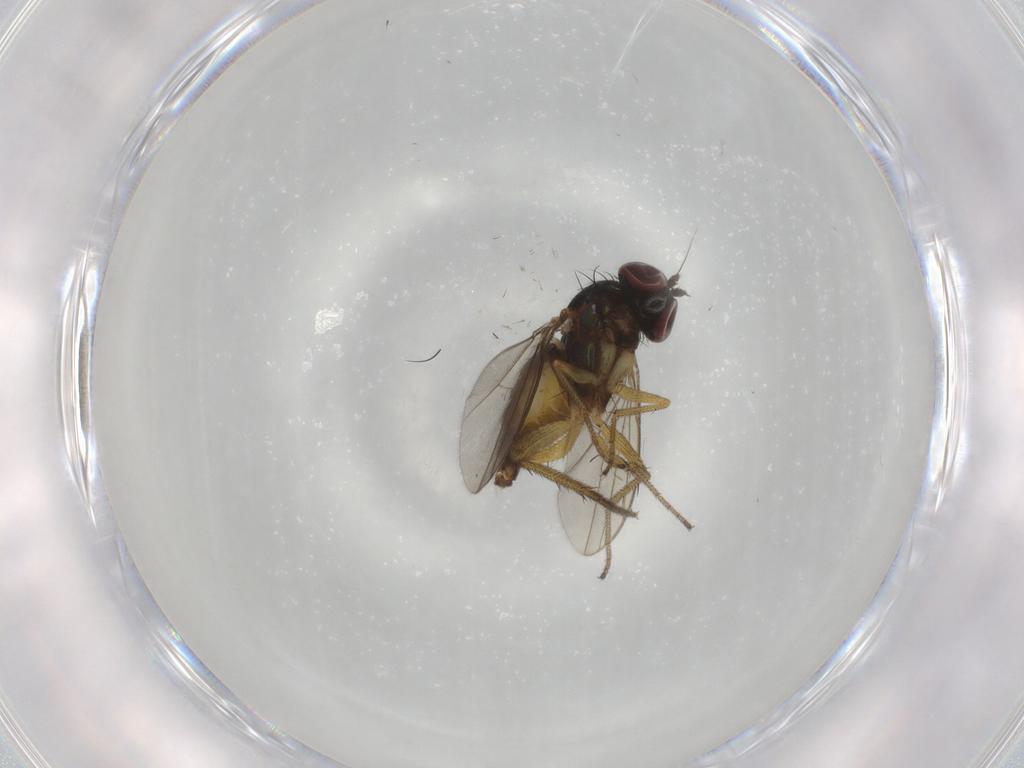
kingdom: Animalia
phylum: Arthropoda
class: Insecta
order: Diptera
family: Dolichopodidae
